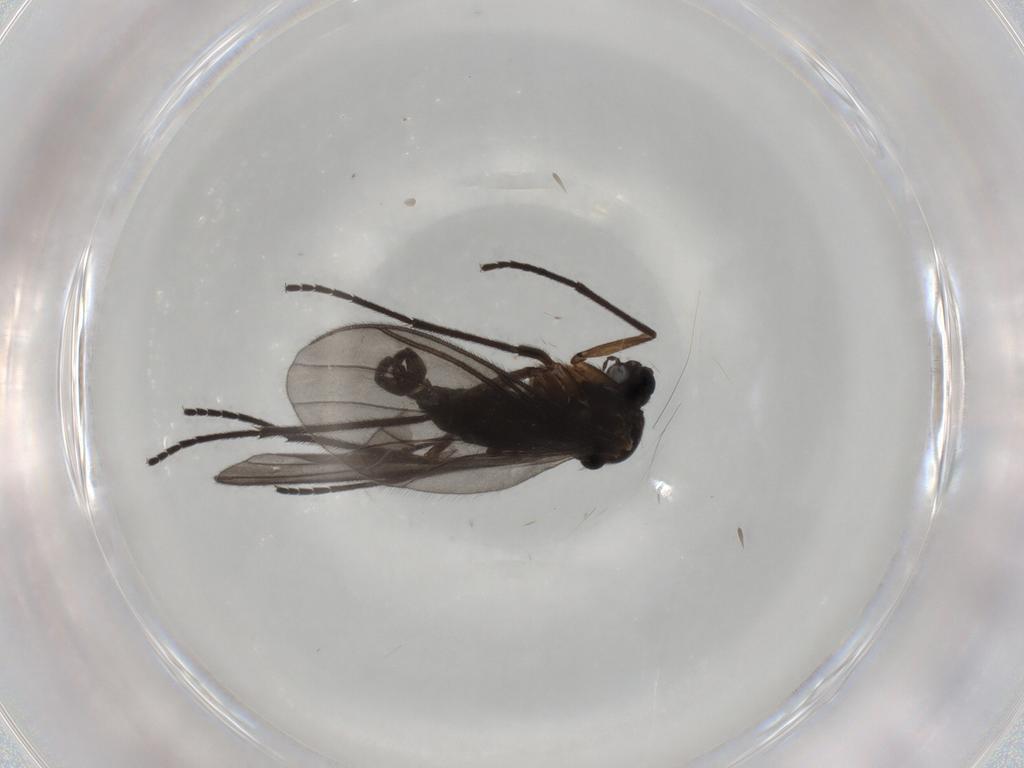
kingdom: Animalia
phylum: Arthropoda
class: Insecta
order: Diptera
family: Sciaridae
